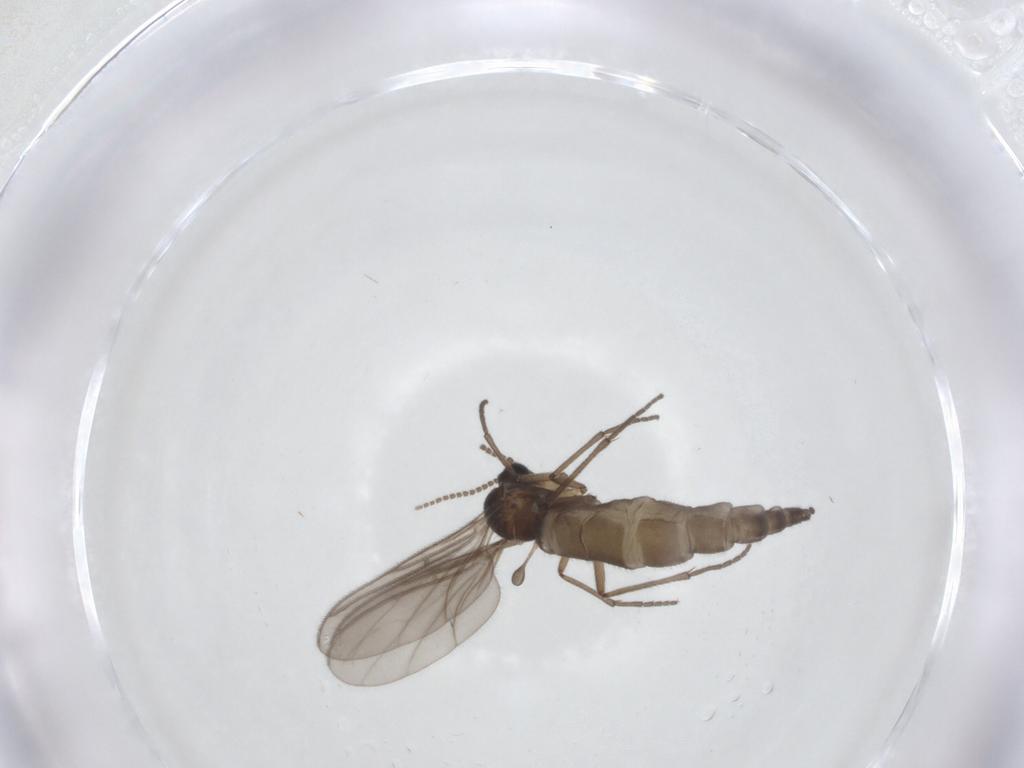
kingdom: Animalia
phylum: Arthropoda
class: Insecta
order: Diptera
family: Sciaridae
